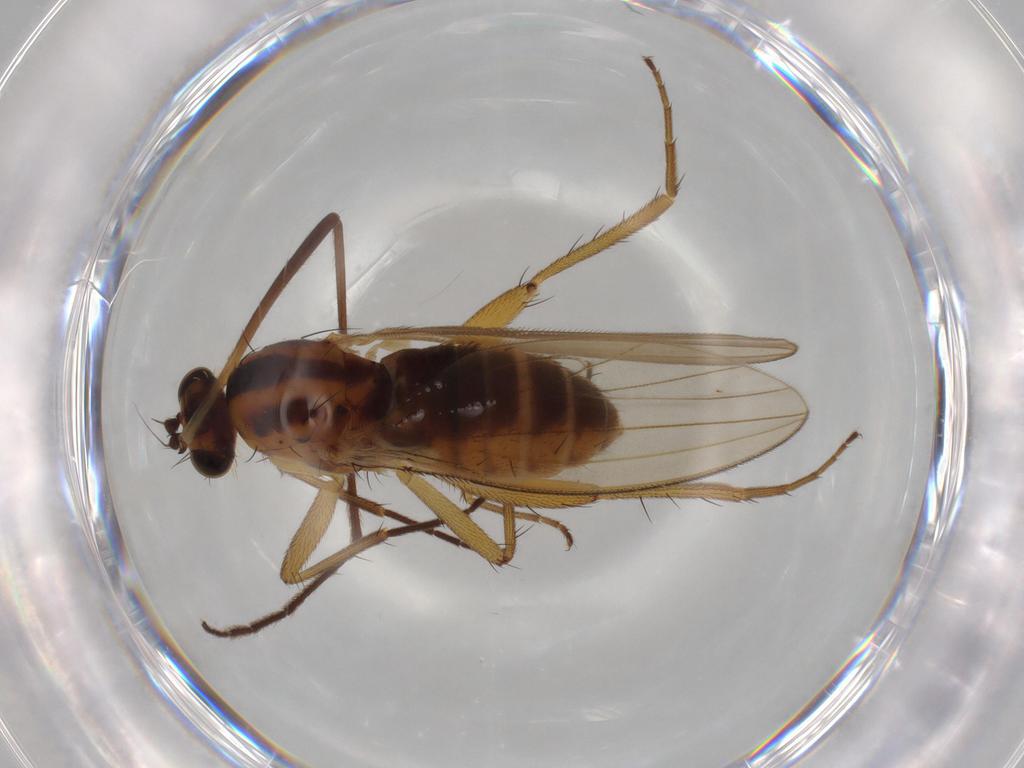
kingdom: Animalia
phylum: Arthropoda
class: Insecta
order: Diptera
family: Lonchopteridae
